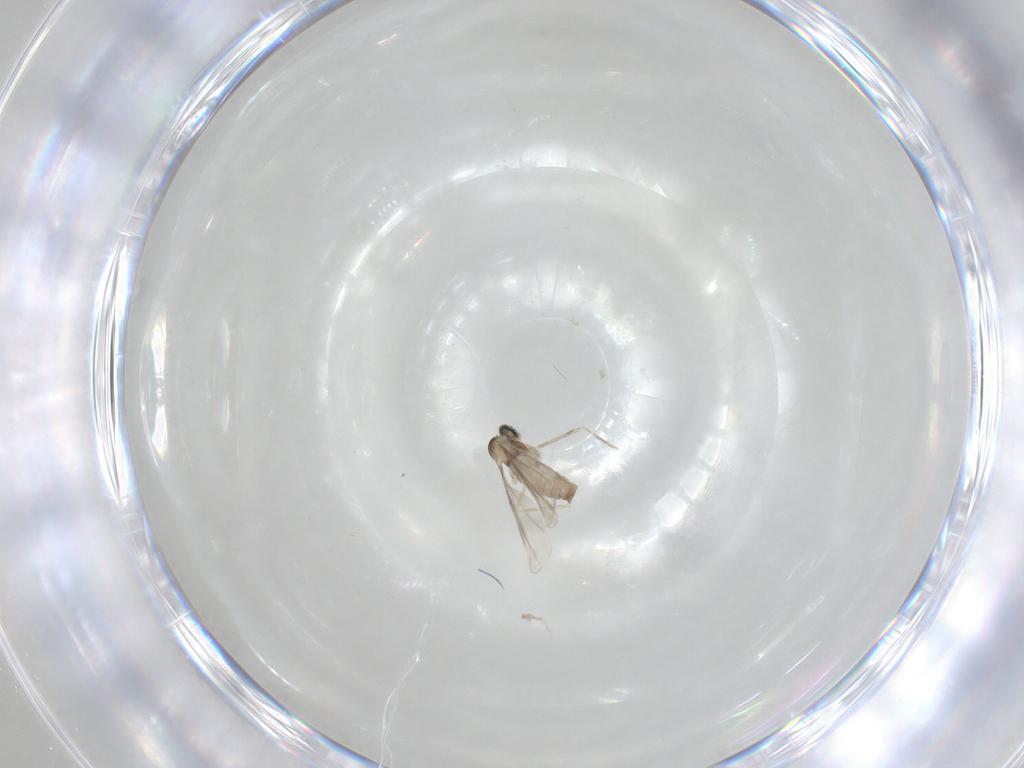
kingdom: Animalia
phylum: Arthropoda
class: Insecta
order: Diptera
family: Cecidomyiidae
